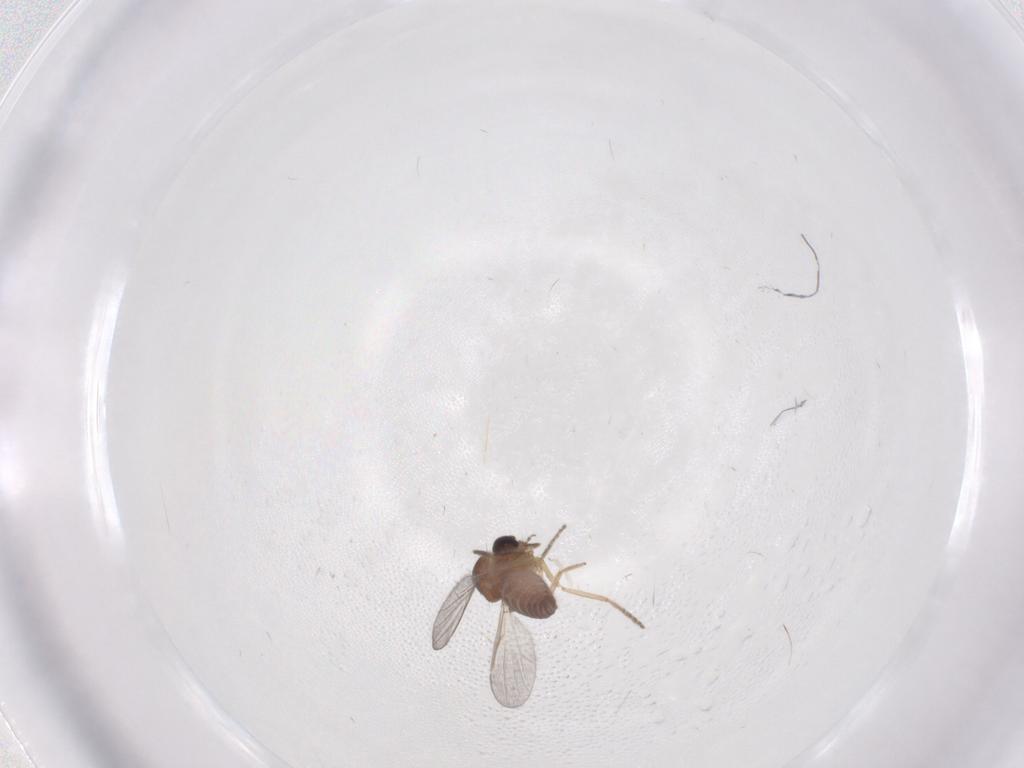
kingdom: Animalia
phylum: Arthropoda
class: Insecta
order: Diptera
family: Ceratopogonidae
